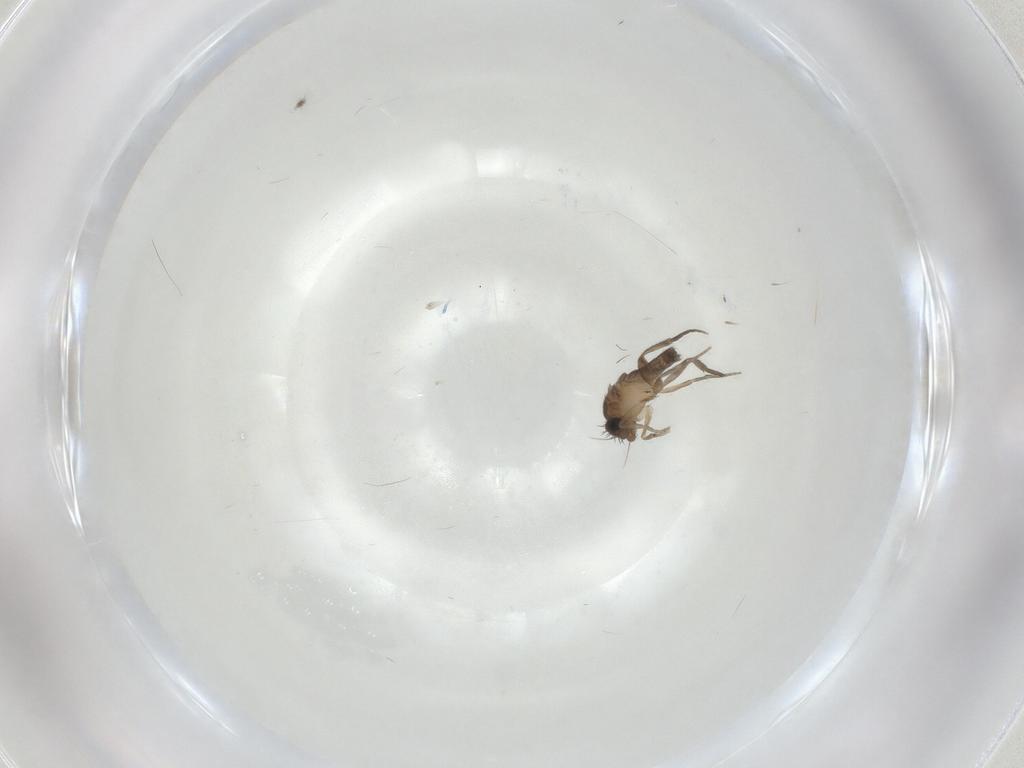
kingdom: Animalia
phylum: Arthropoda
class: Insecta
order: Diptera
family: Phoridae
